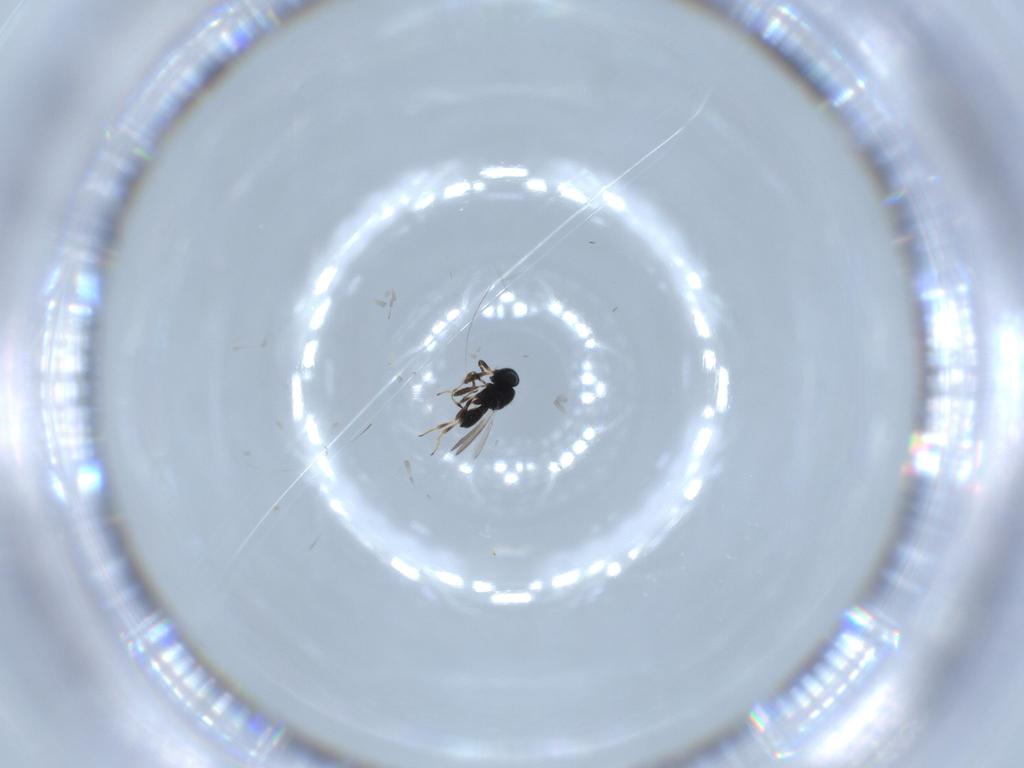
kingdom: Animalia
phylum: Arthropoda
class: Insecta
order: Hymenoptera
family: Scelionidae
